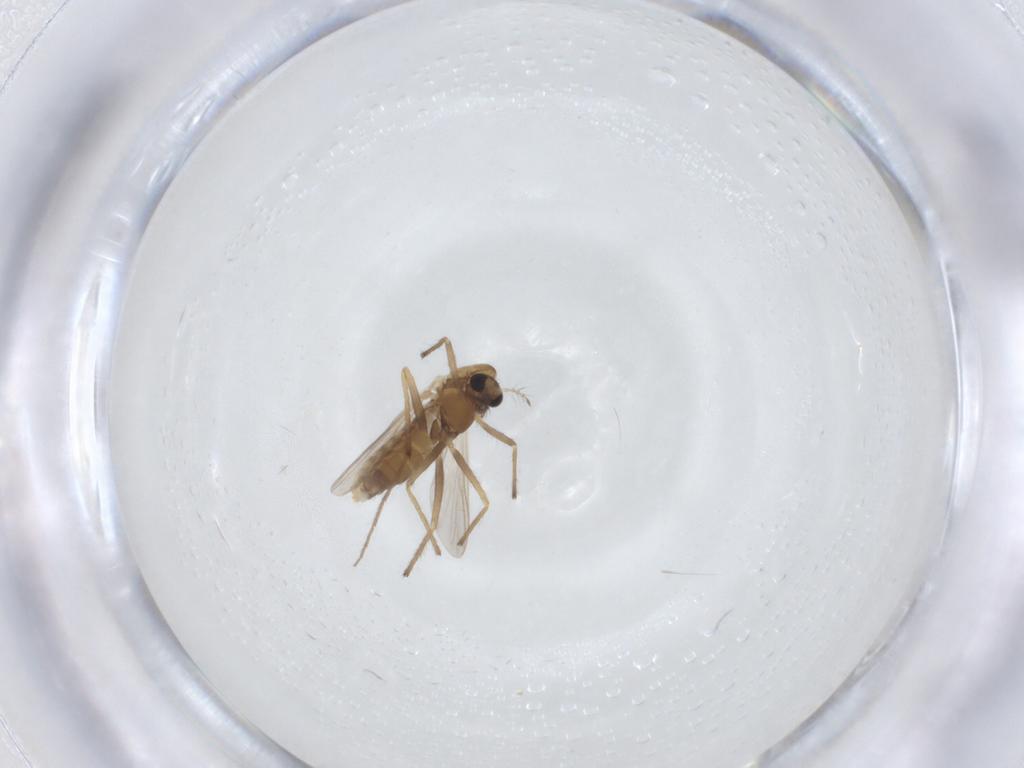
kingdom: Animalia
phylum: Arthropoda
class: Insecta
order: Diptera
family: Chironomidae
